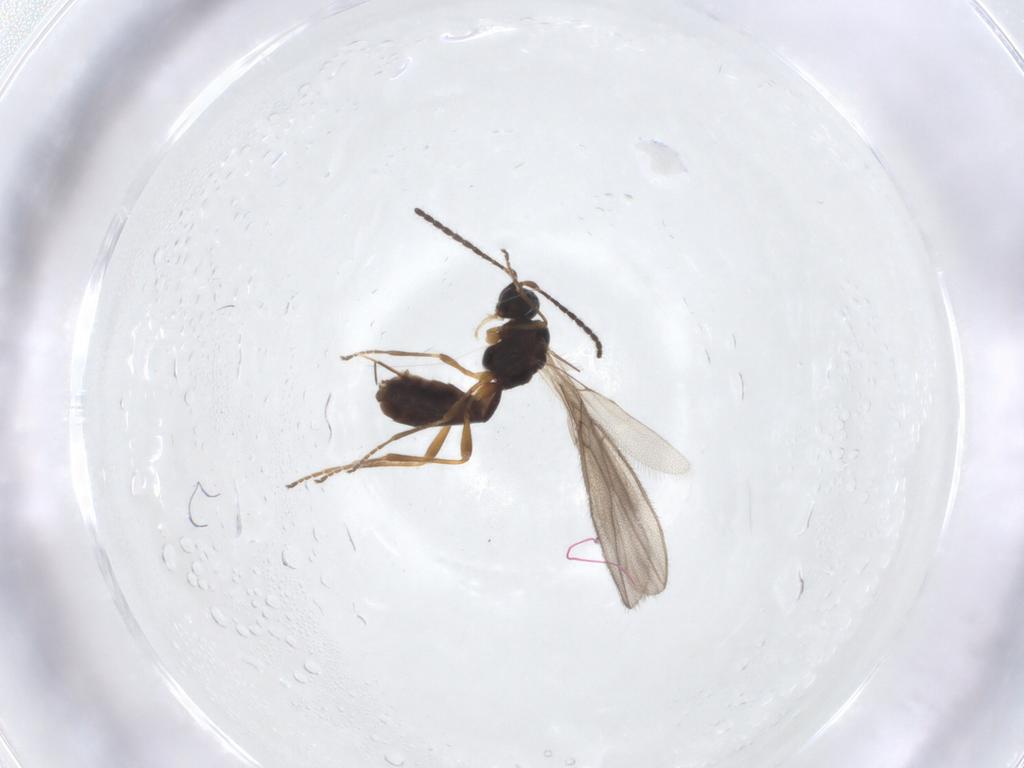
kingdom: Animalia
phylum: Arthropoda
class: Insecta
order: Hymenoptera
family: Braconidae
